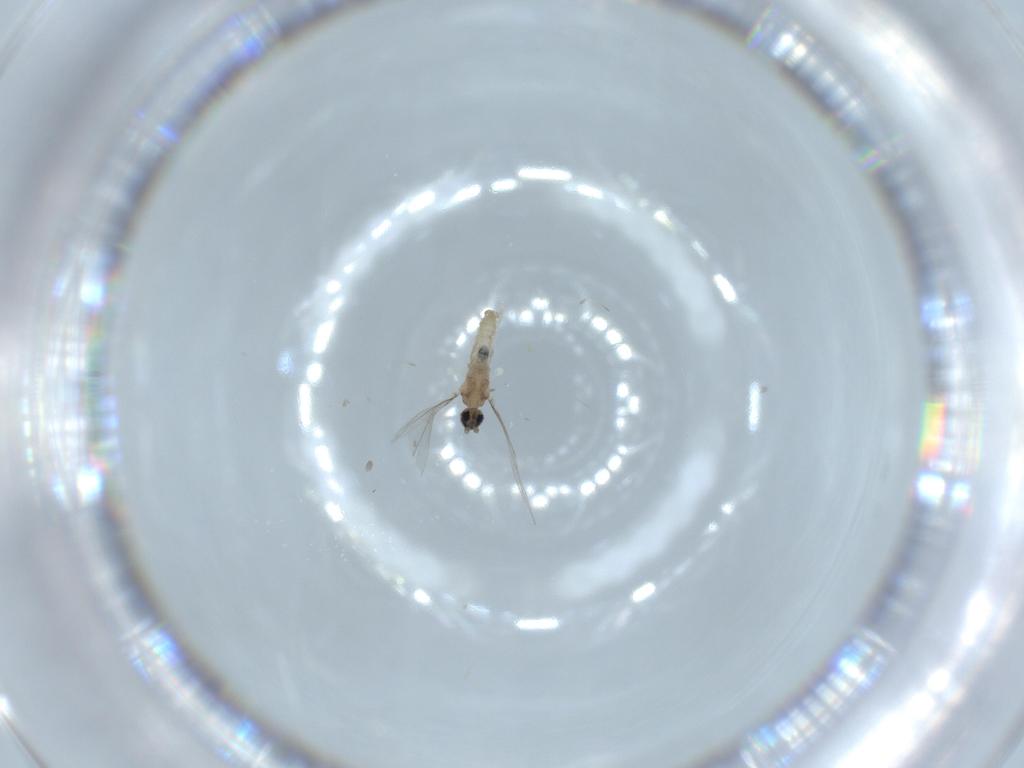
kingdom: Animalia
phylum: Arthropoda
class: Insecta
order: Diptera
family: Cecidomyiidae
